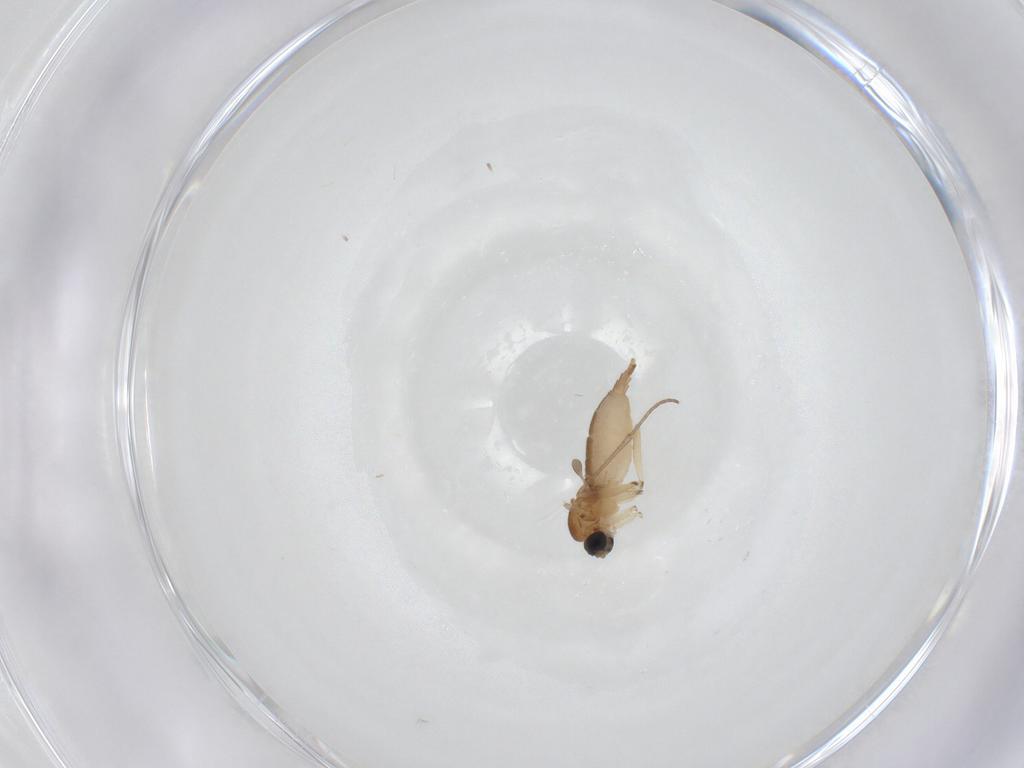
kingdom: Animalia
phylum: Arthropoda
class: Insecta
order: Diptera
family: Sciaridae
